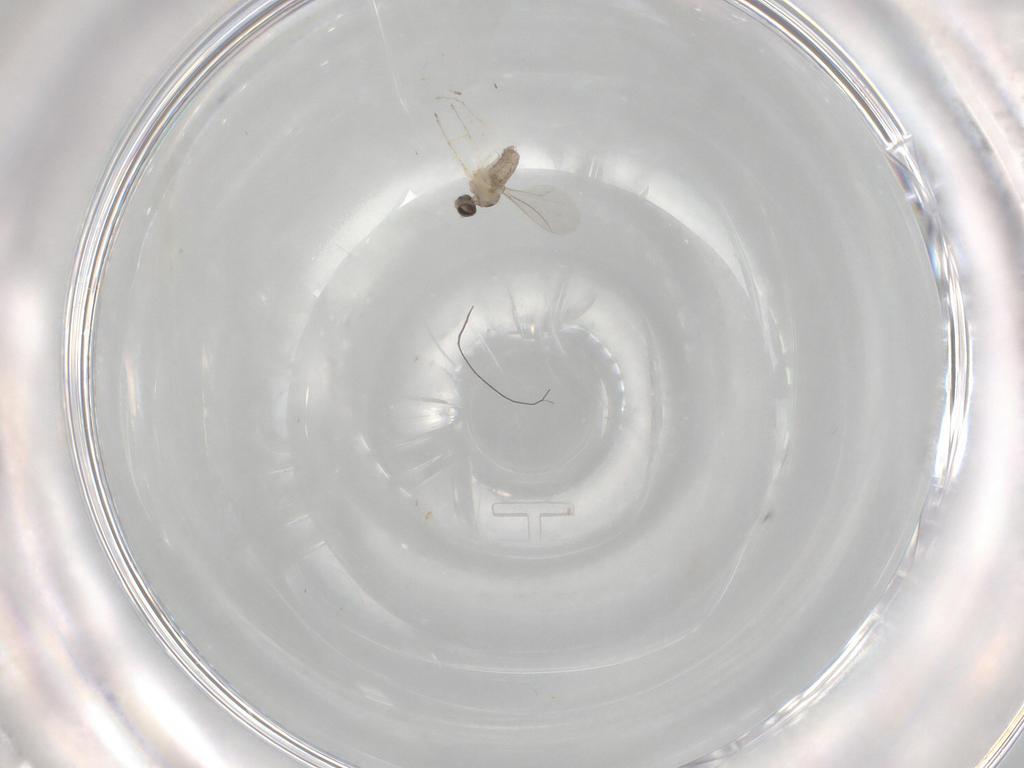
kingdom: Animalia
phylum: Arthropoda
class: Insecta
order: Diptera
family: Cecidomyiidae
